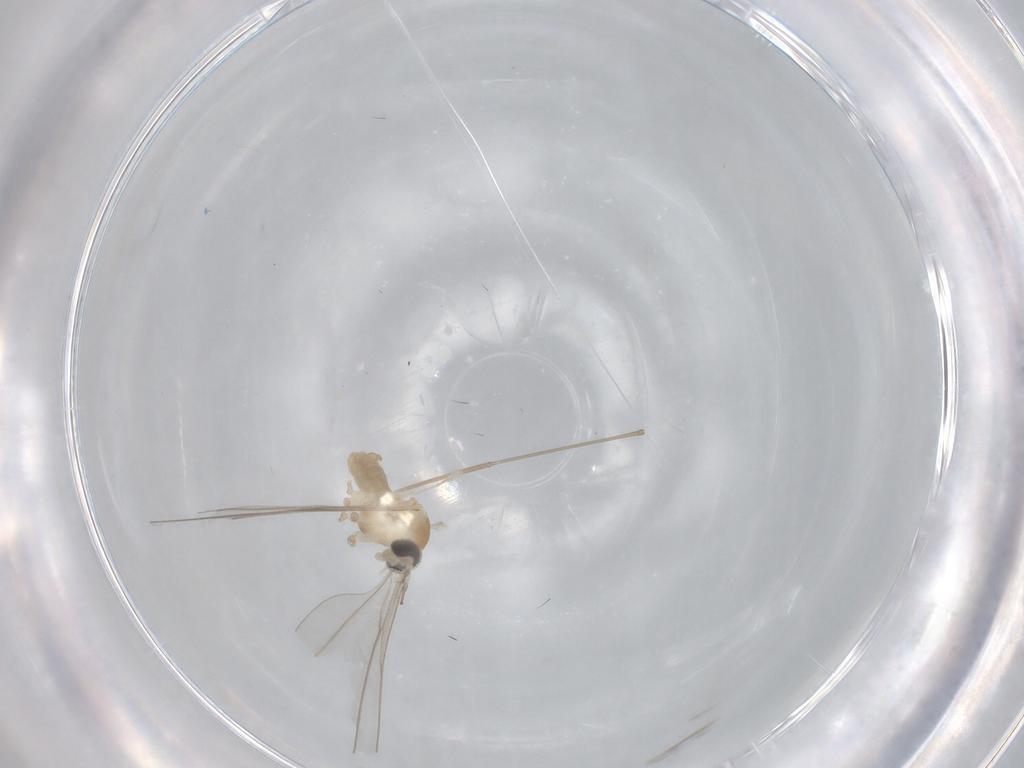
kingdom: Animalia
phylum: Arthropoda
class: Insecta
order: Diptera
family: Cecidomyiidae
